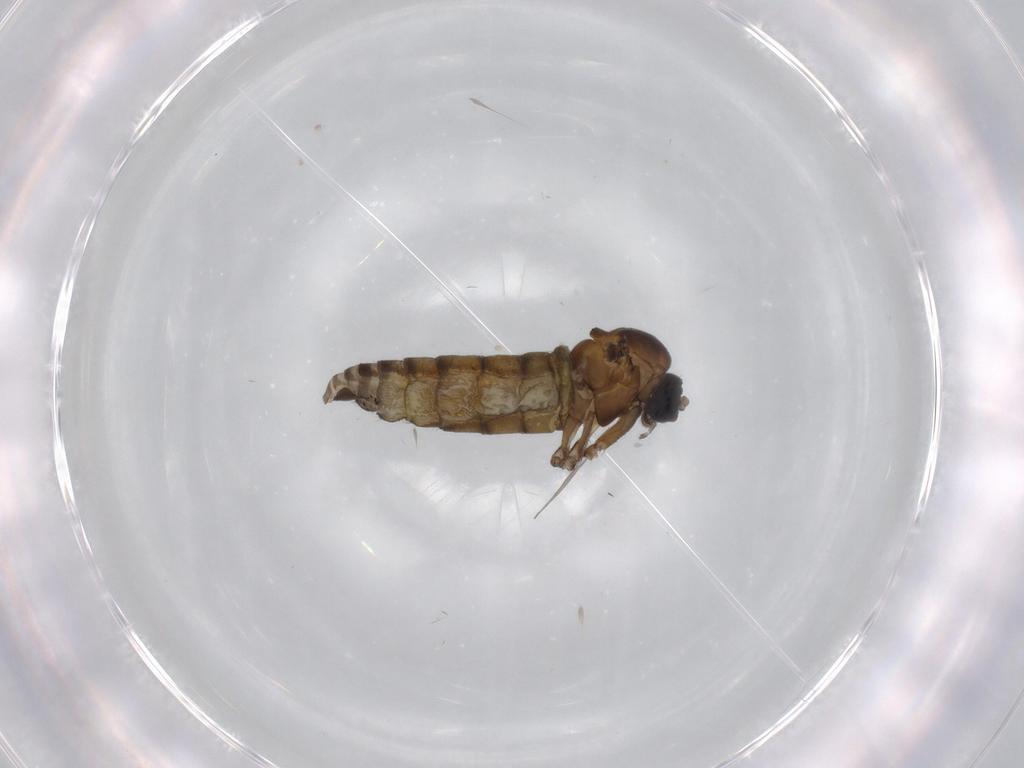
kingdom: Animalia
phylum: Arthropoda
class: Insecta
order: Diptera
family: Sciaridae
